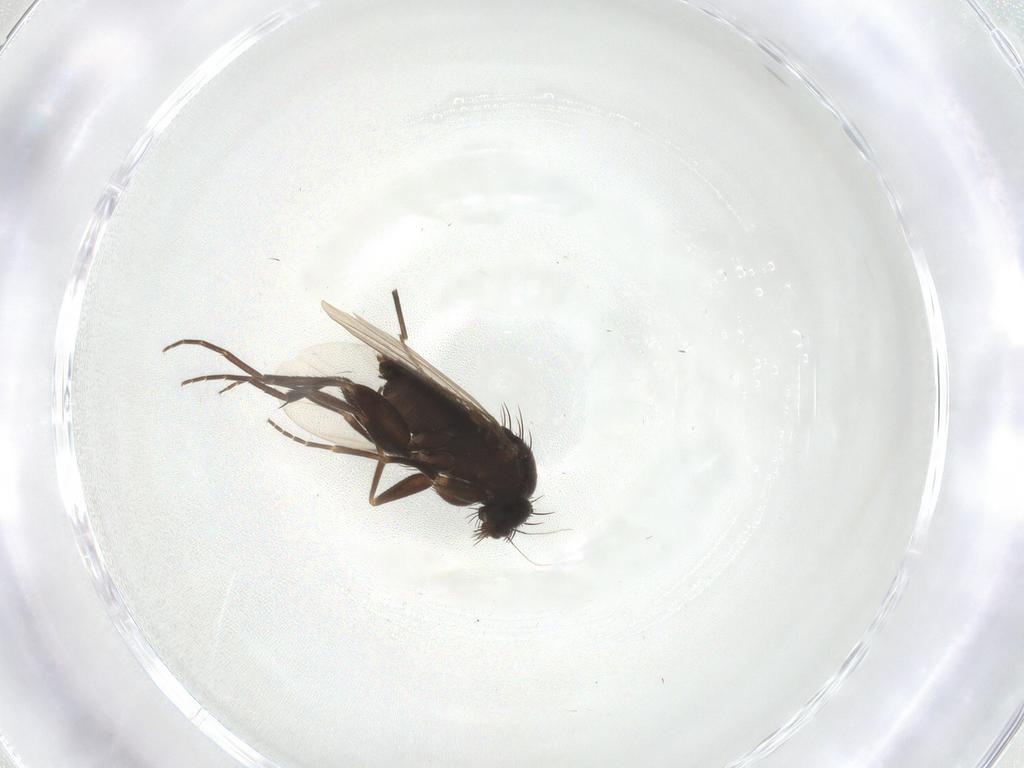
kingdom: Animalia
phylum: Arthropoda
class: Insecta
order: Diptera
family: Phoridae
